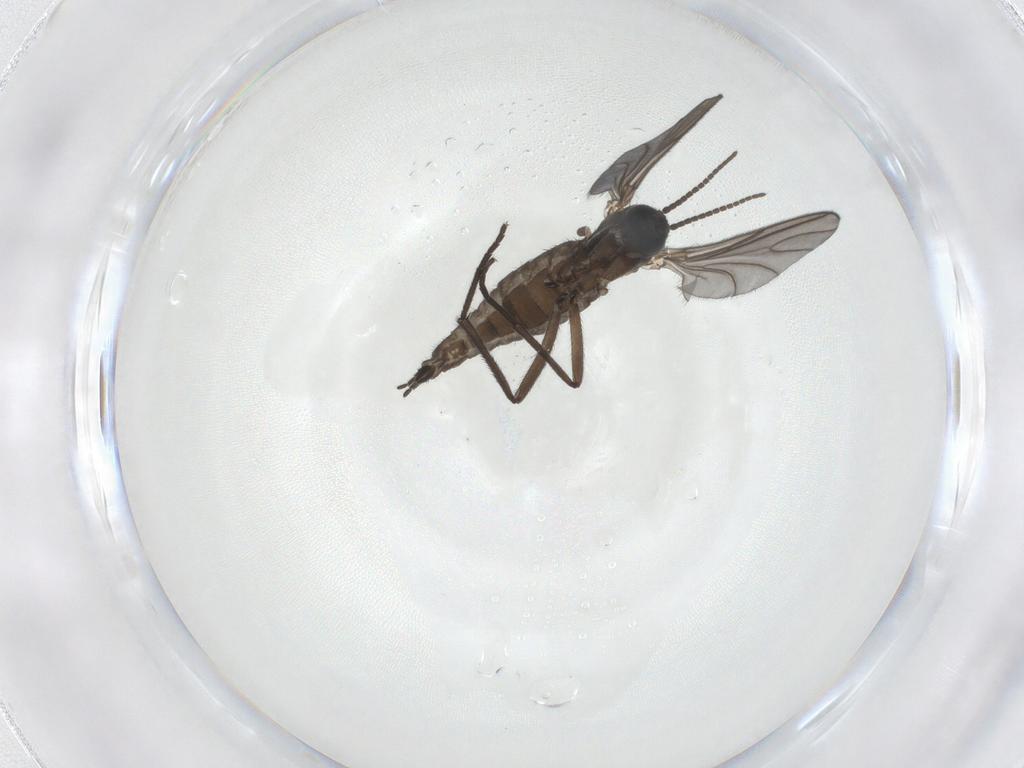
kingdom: Animalia
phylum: Arthropoda
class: Insecta
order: Diptera
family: Sciaridae
